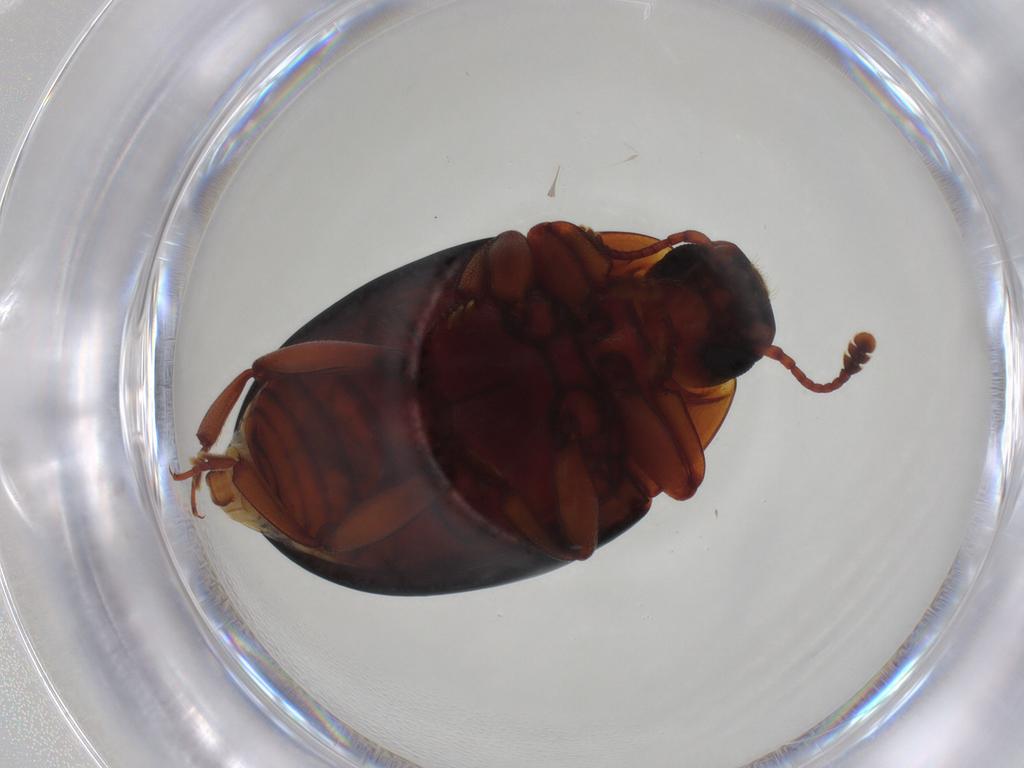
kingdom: Animalia
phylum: Arthropoda
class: Insecta
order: Coleoptera
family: Zopheridae
